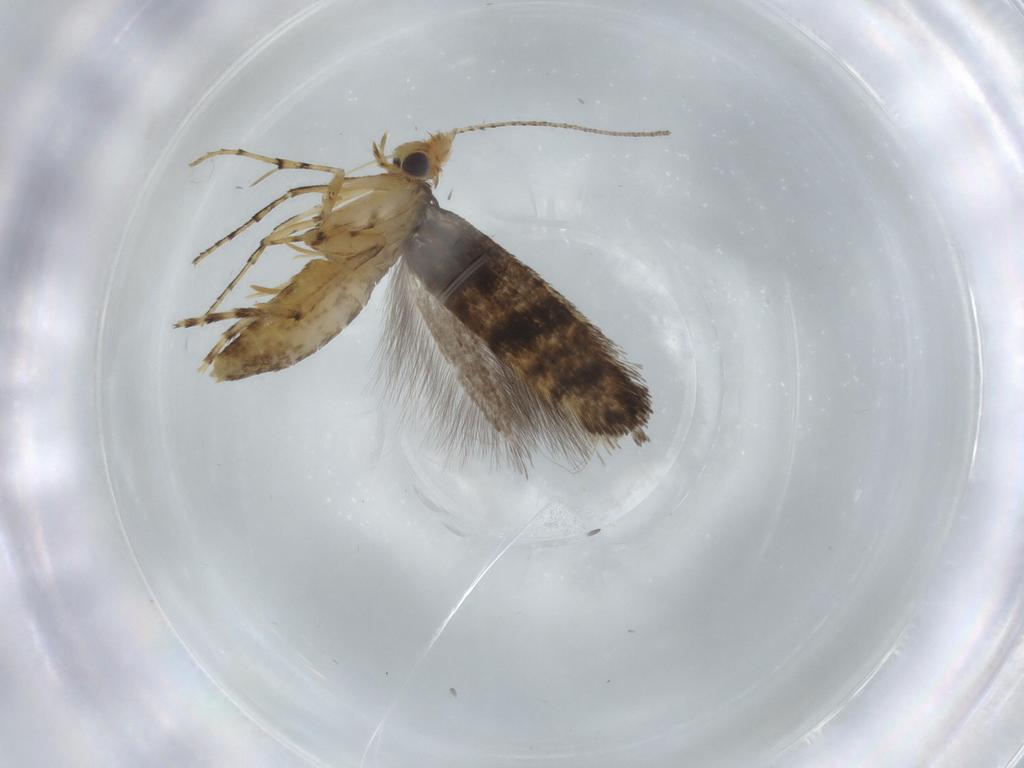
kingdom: Animalia
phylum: Arthropoda
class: Insecta
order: Lepidoptera
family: Argyresthiidae
